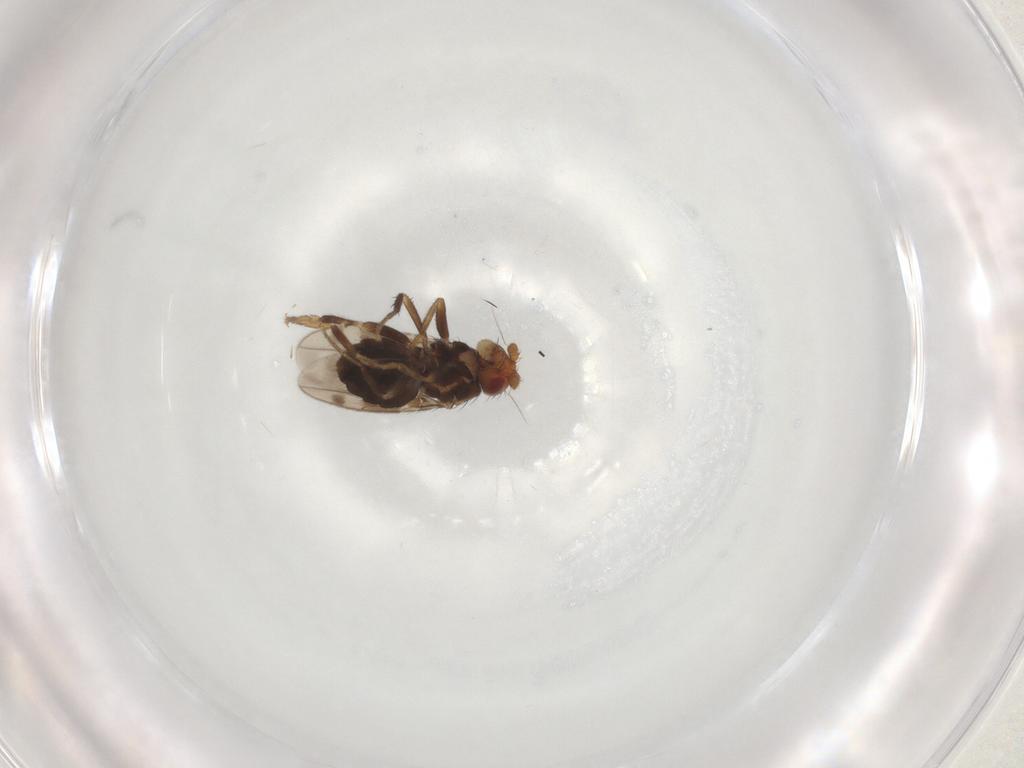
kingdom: Animalia
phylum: Arthropoda
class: Insecta
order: Diptera
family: Sphaeroceridae
